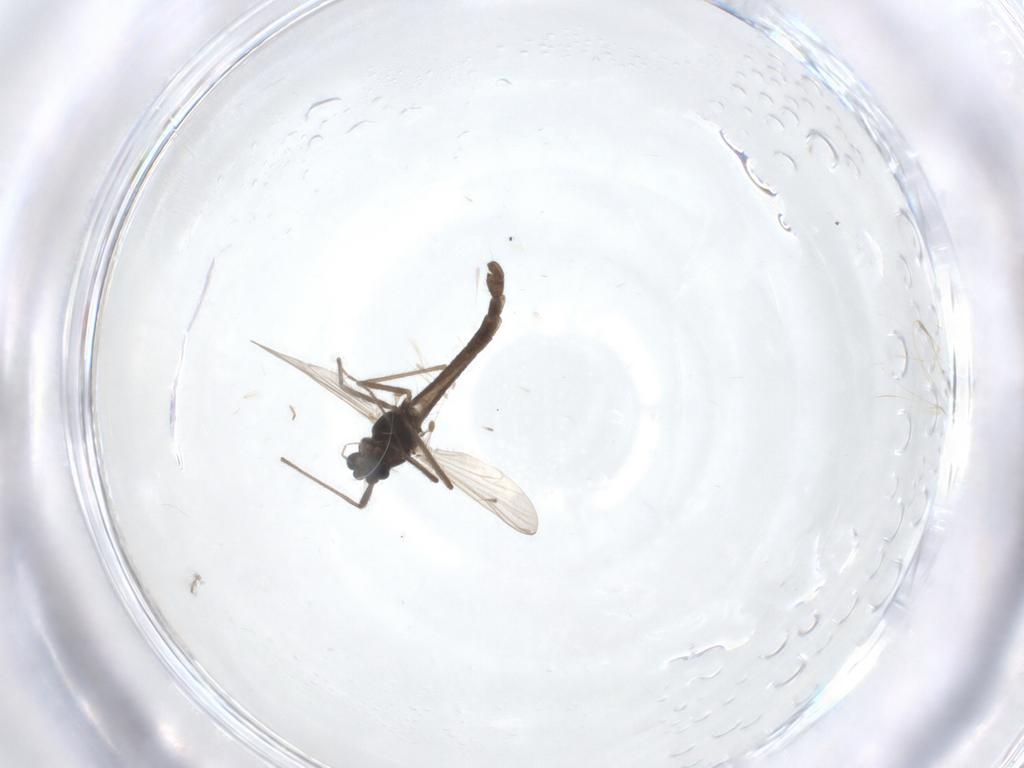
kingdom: Animalia
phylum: Arthropoda
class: Insecta
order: Diptera
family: Chironomidae
